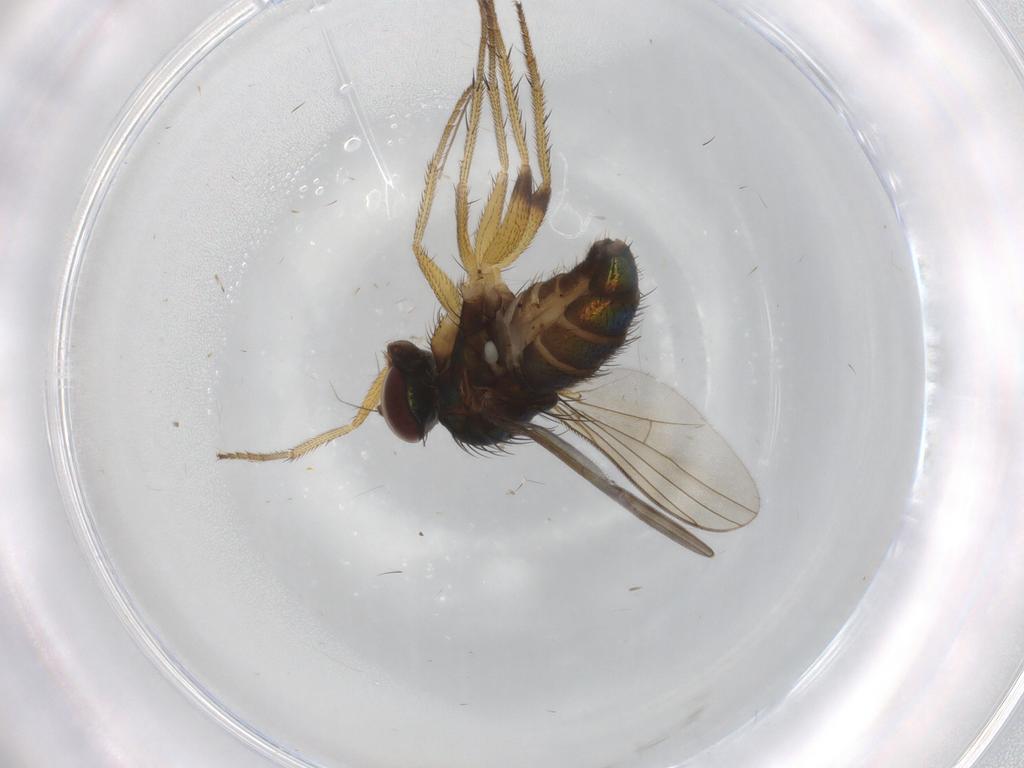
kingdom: Animalia
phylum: Arthropoda
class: Insecta
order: Diptera
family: Dolichopodidae
